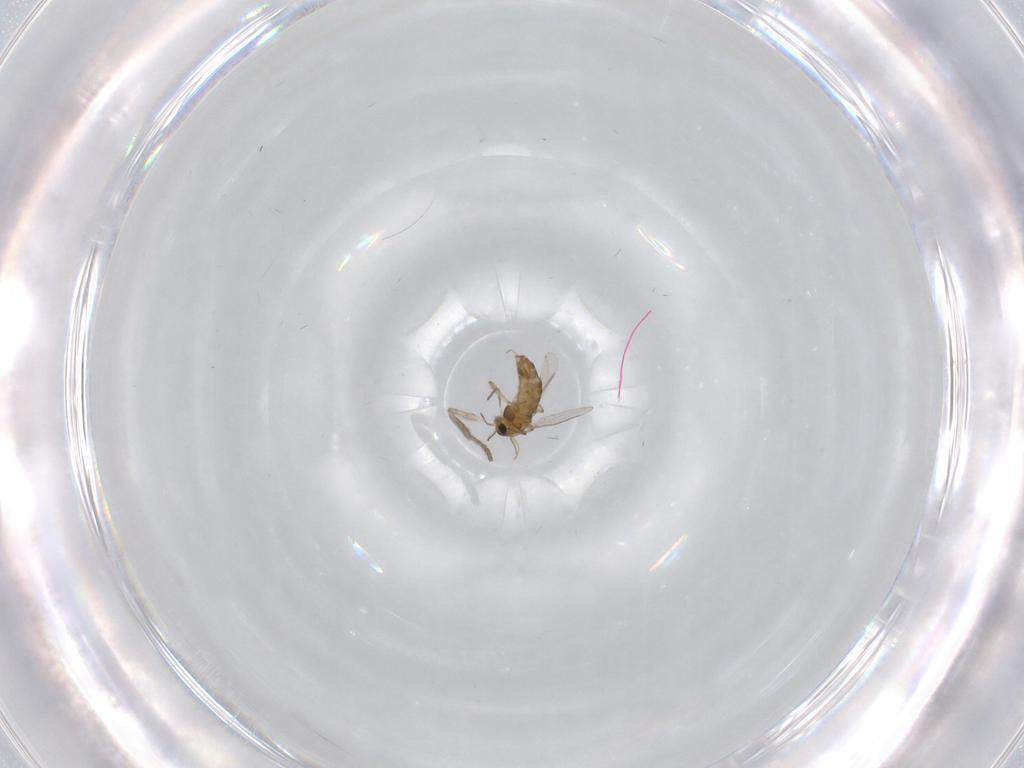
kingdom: Animalia
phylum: Arthropoda
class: Insecta
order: Diptera
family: Chironomidae
